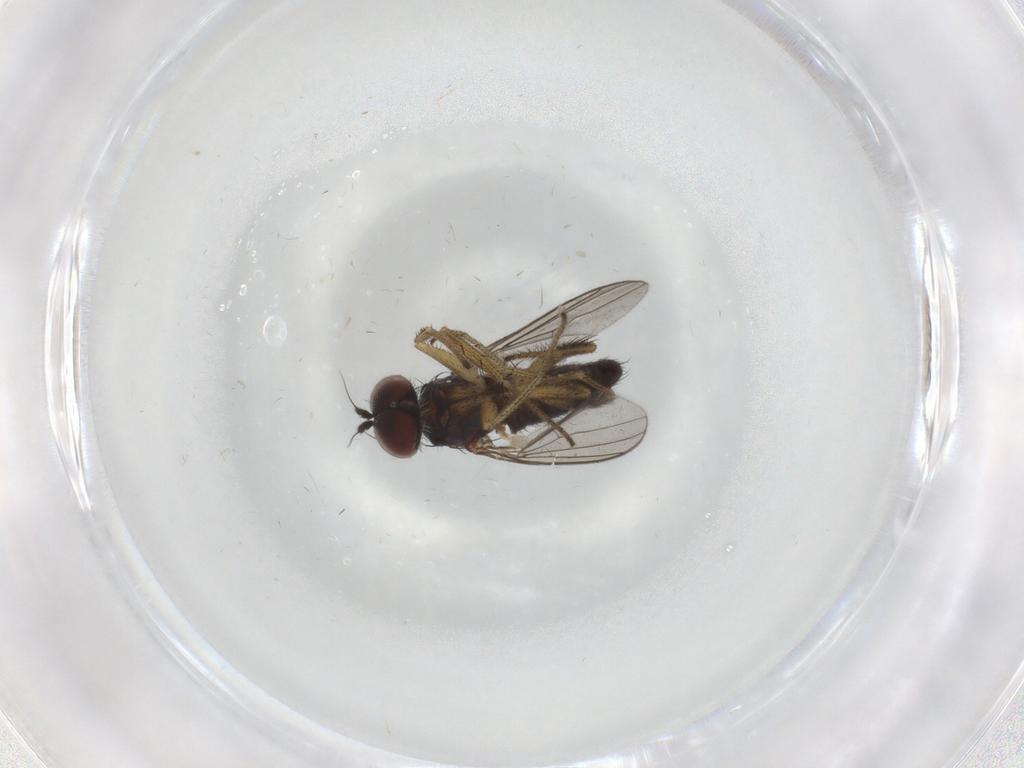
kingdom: Animalia
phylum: Arthropoda
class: Insecta
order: Diptera
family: Dolichopodidae
